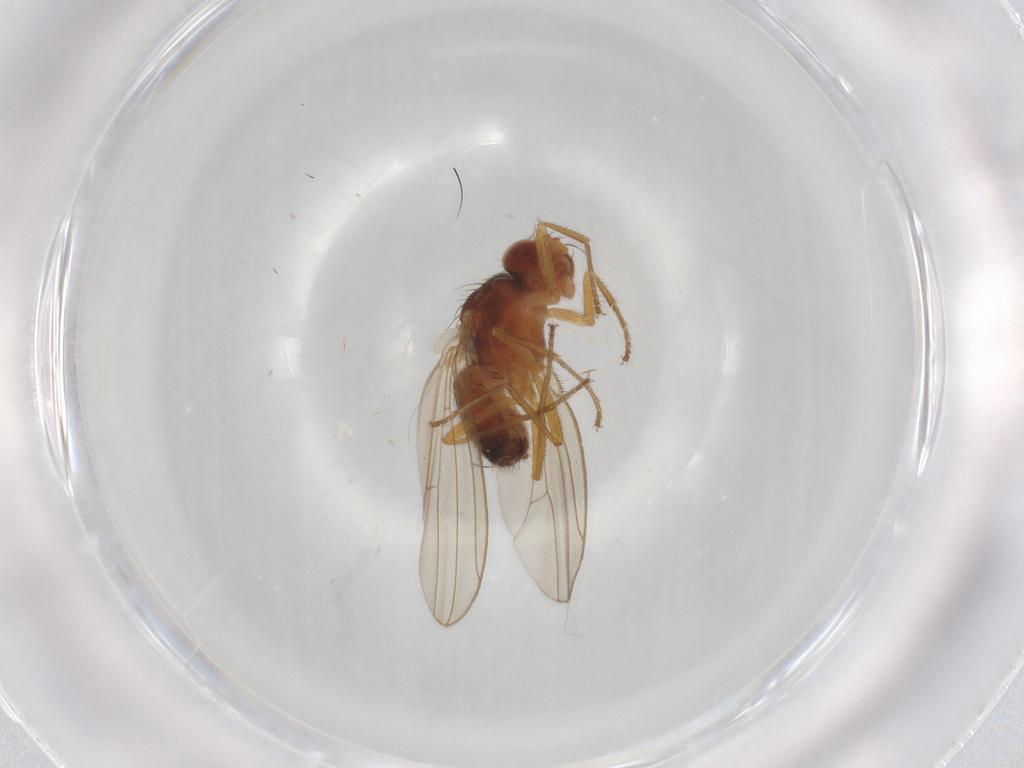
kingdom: Animalia
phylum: Arthropoda
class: Insecta
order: Diptera
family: Drosophilidae
